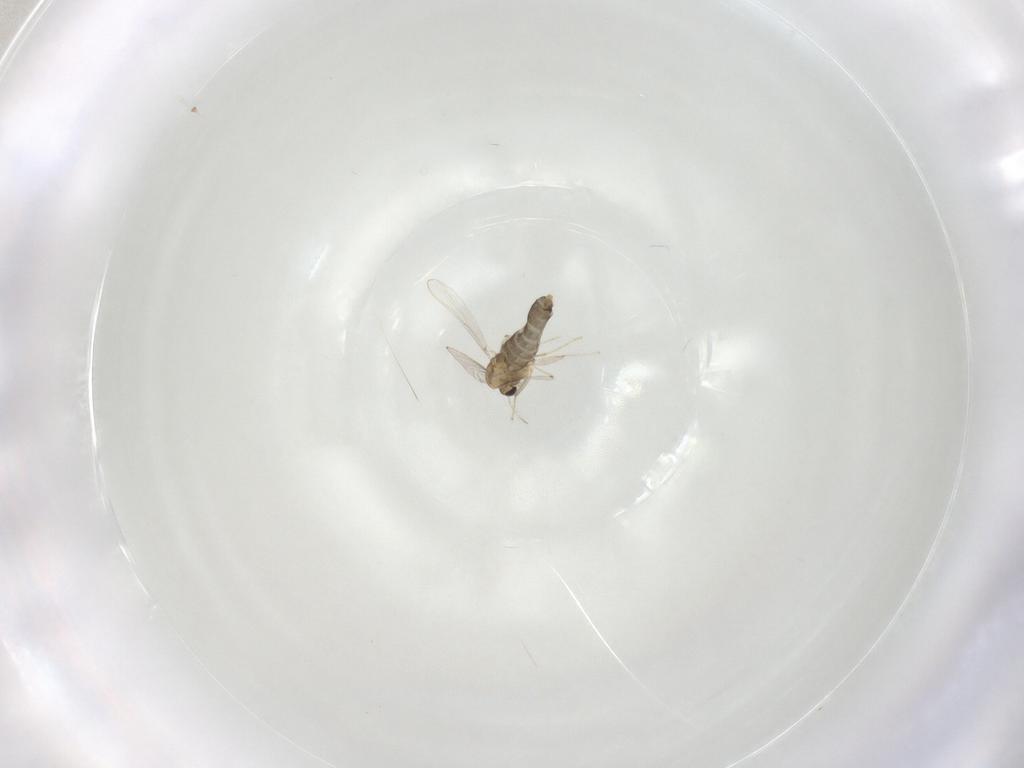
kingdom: Animalia
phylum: Arthropoda
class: Insecta
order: Diptera
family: Chironomidae
